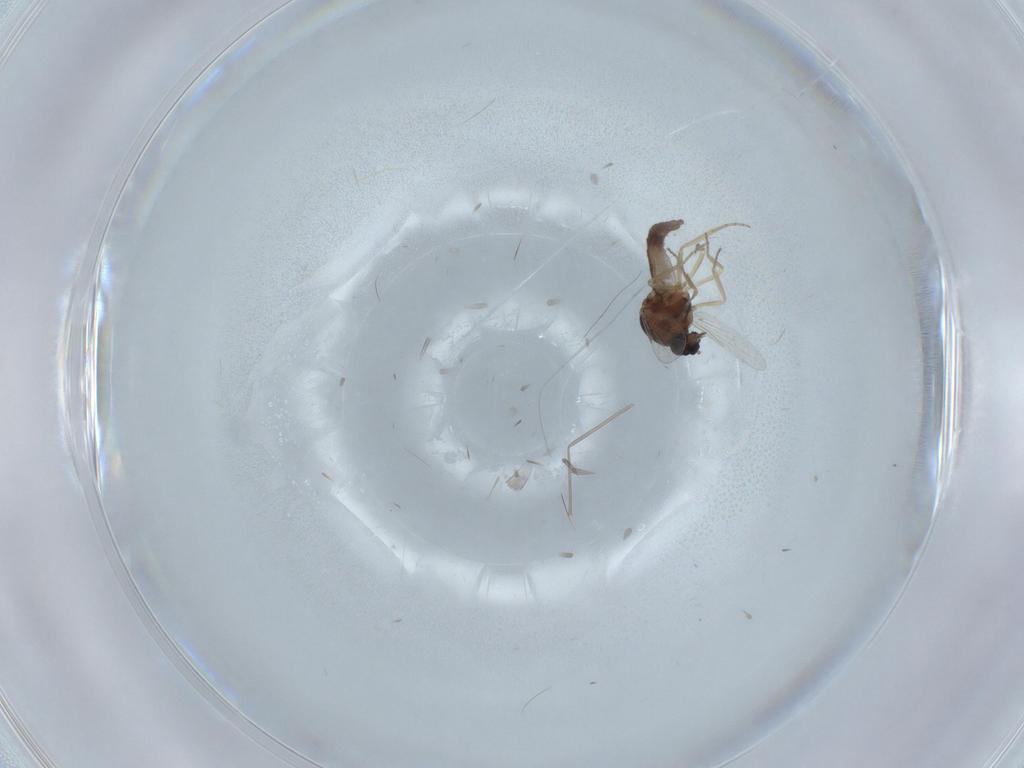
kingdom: Animalia
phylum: Arthropoda
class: Insecta
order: Diptera
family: Ceratopogonidae
